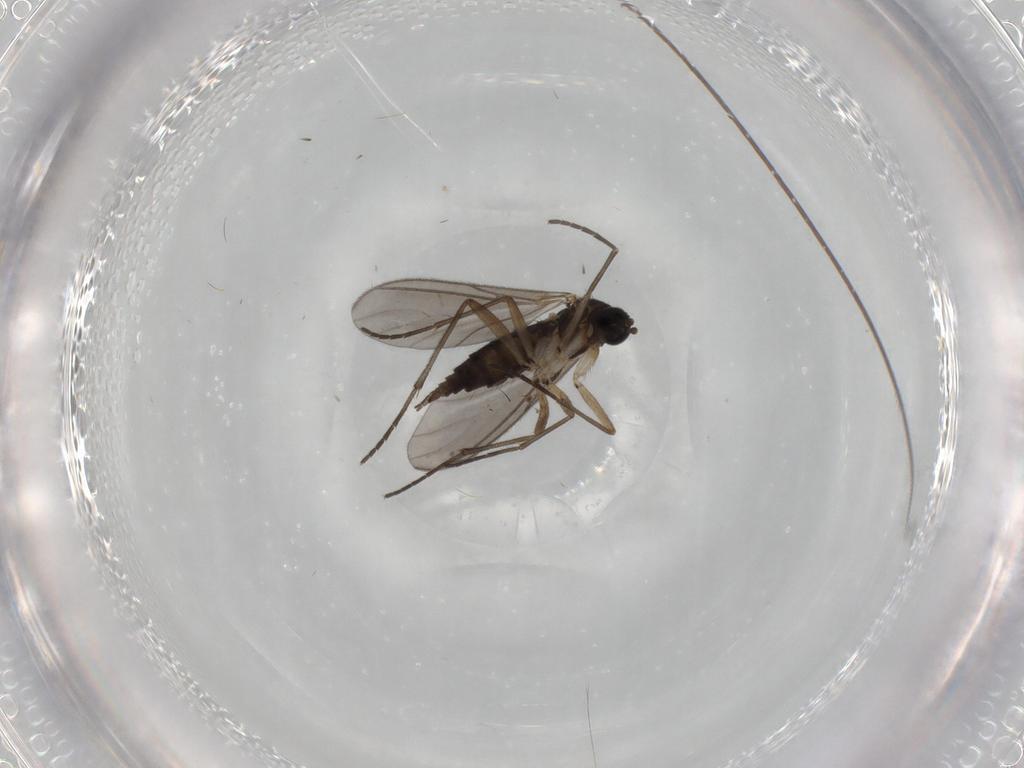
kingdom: Animalia
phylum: Arthropoda
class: Insecta
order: Diptera
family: Sciaridae
